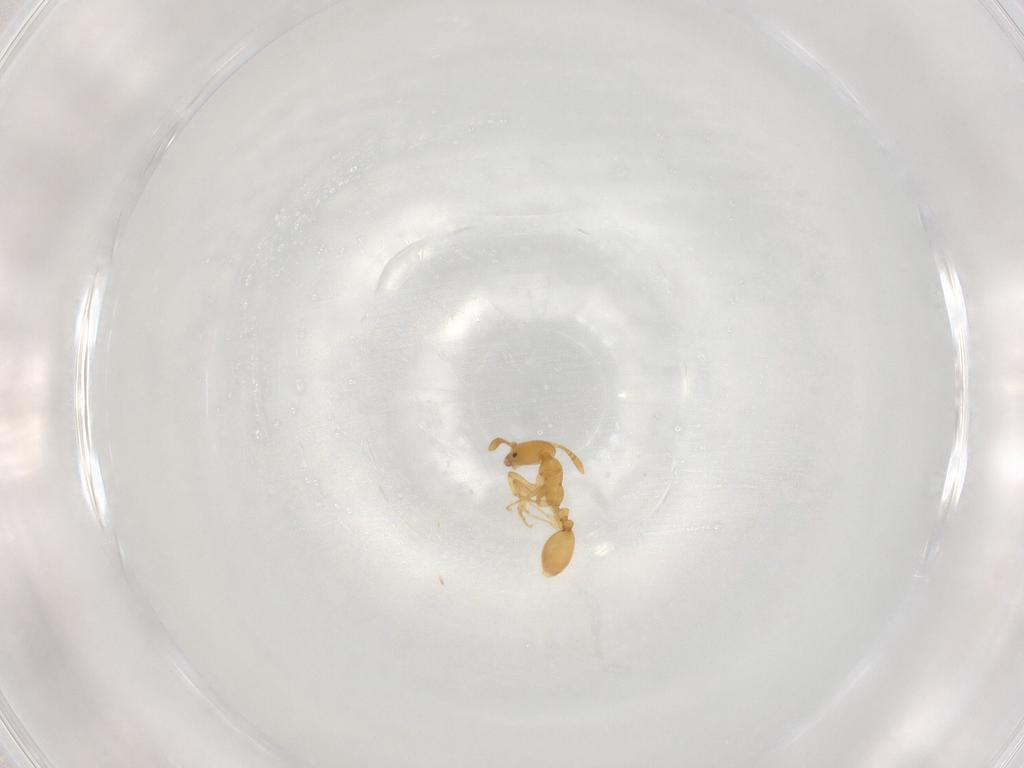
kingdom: Animalia
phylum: Arthropoda
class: Insecta
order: Hymenoptera
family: Formicidae
